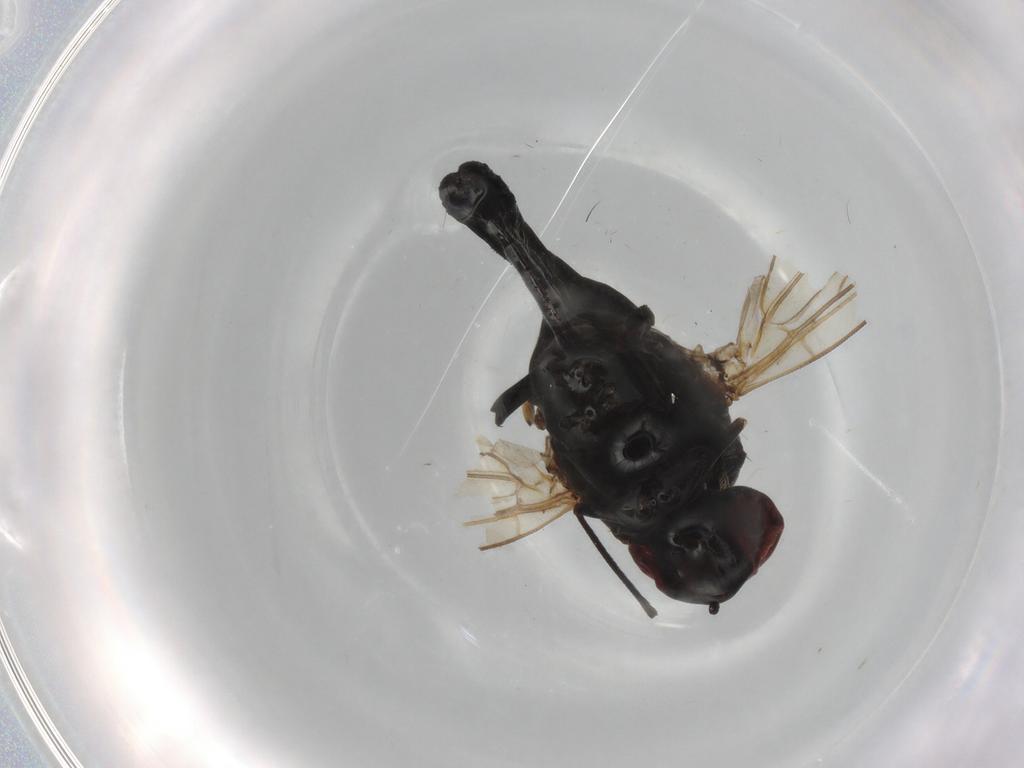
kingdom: Animalia
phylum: Arthropoda
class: Insecta
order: Diptera
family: Bombyliidae
